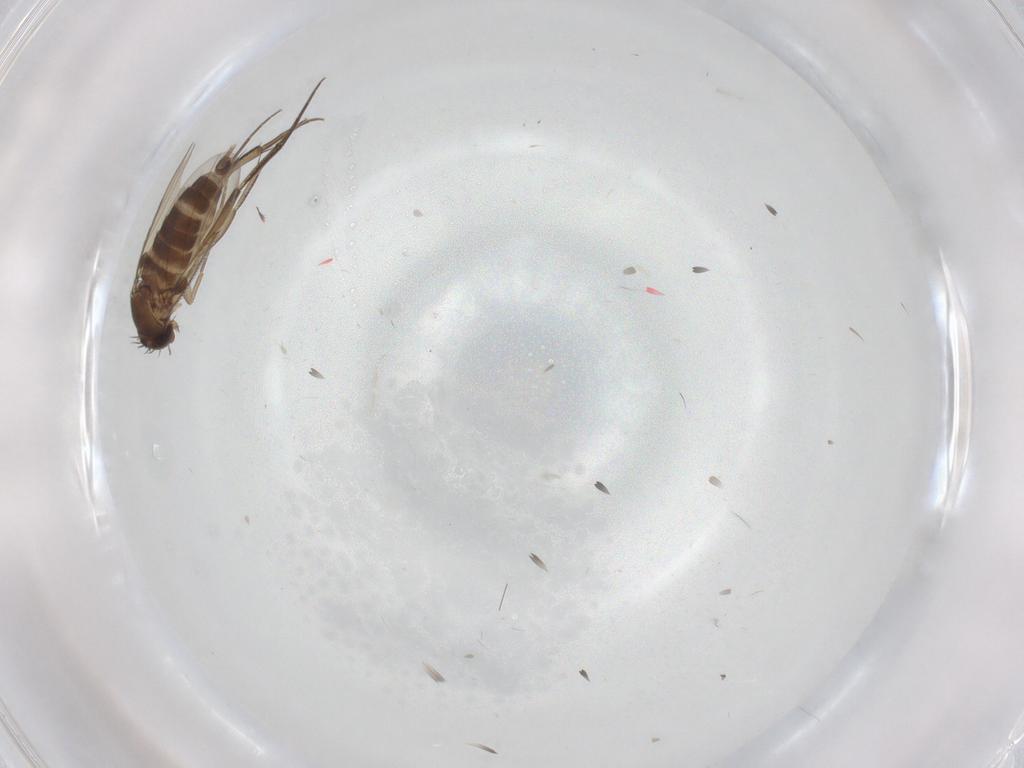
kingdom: Animalia
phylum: Arthropoda
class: Insecta
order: Diptera
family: Phoridae
